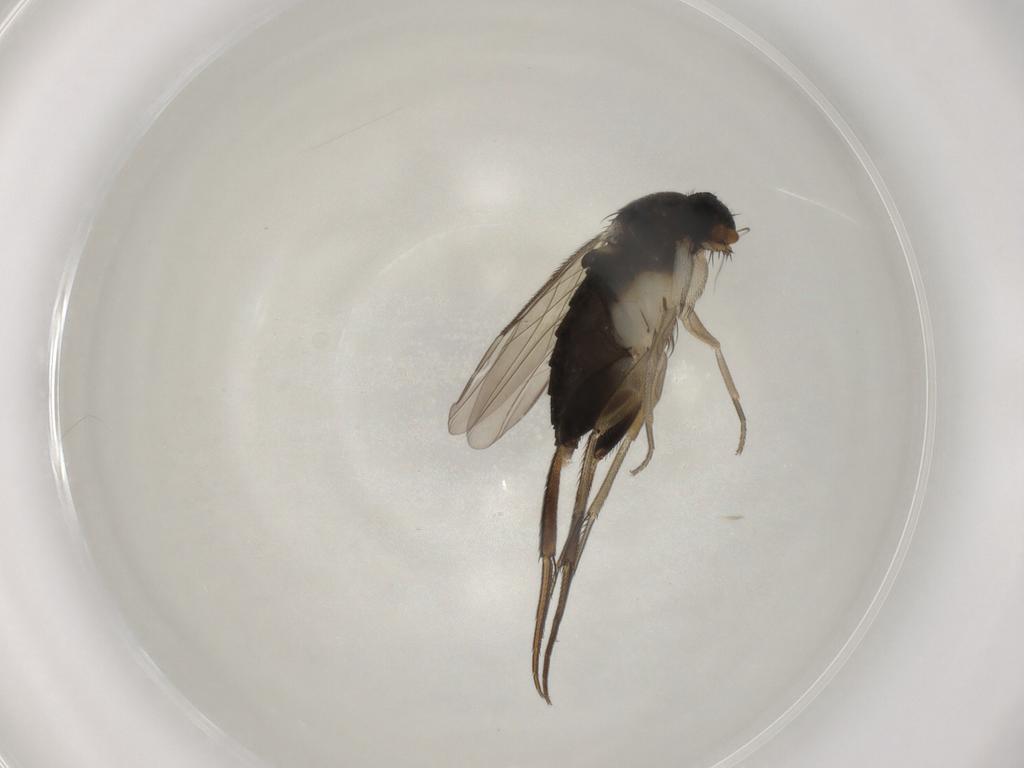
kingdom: Animalia
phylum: Arthropoda
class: Insecta
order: Diptera
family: Phoridae
